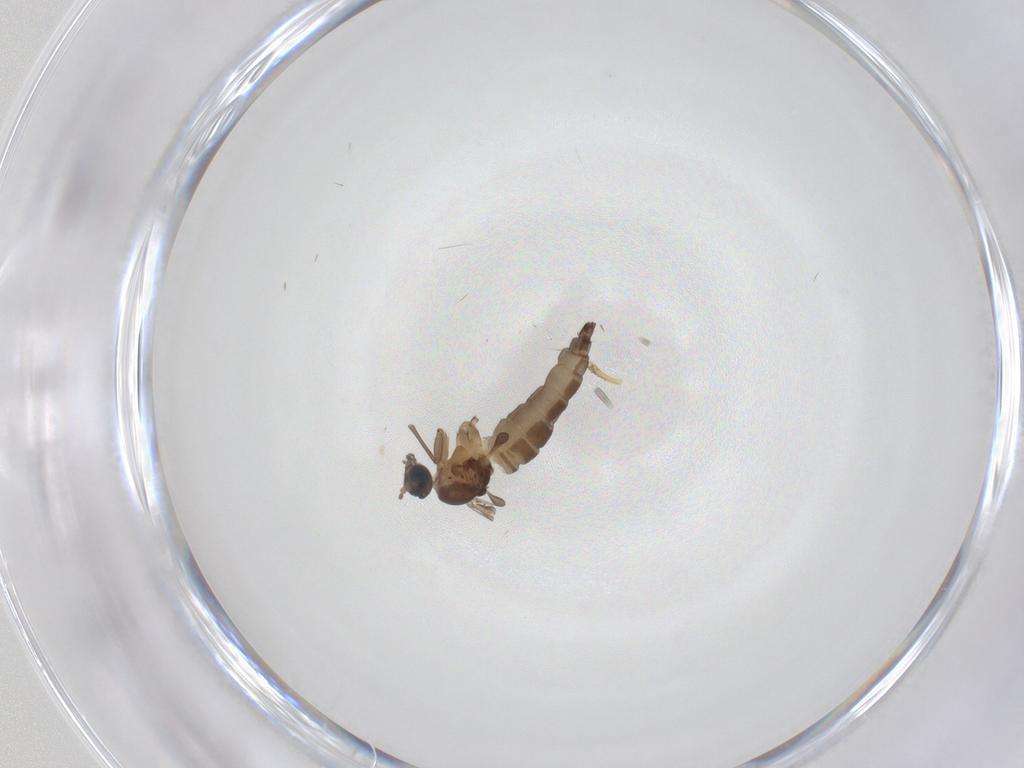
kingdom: Animalia
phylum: Arthropoda
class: Insecta
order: Diptera
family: Sciaridae
